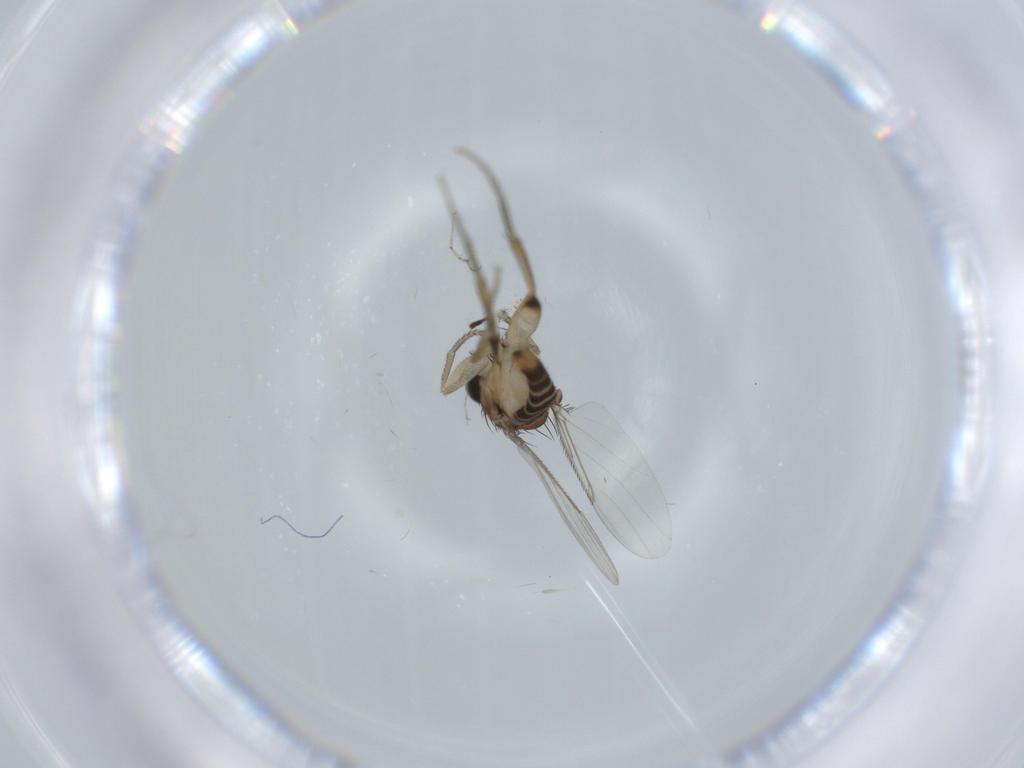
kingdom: Animalia
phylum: Arthropoda
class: Insecta
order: Diptera
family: Phoridae
